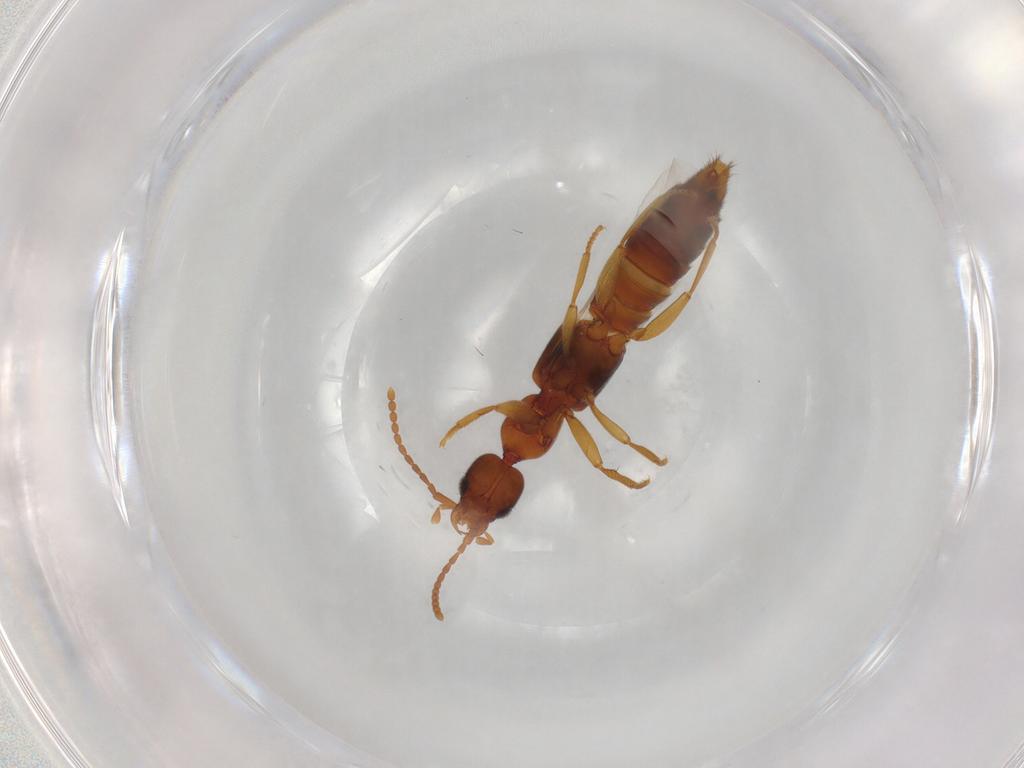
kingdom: Animalia
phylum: Arthropoda
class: Insecta
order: Coleoptera
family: Staphylinidae
